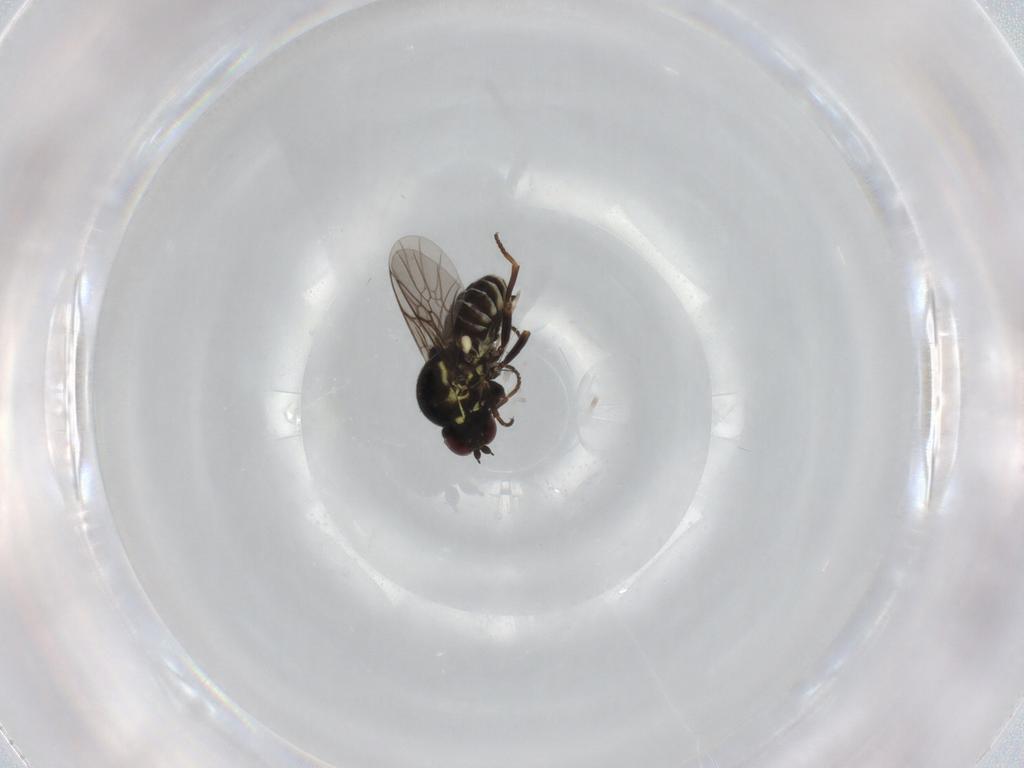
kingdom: Animalia
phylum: Arthropoda
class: Insecta
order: Diptera
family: Bombyliidae
